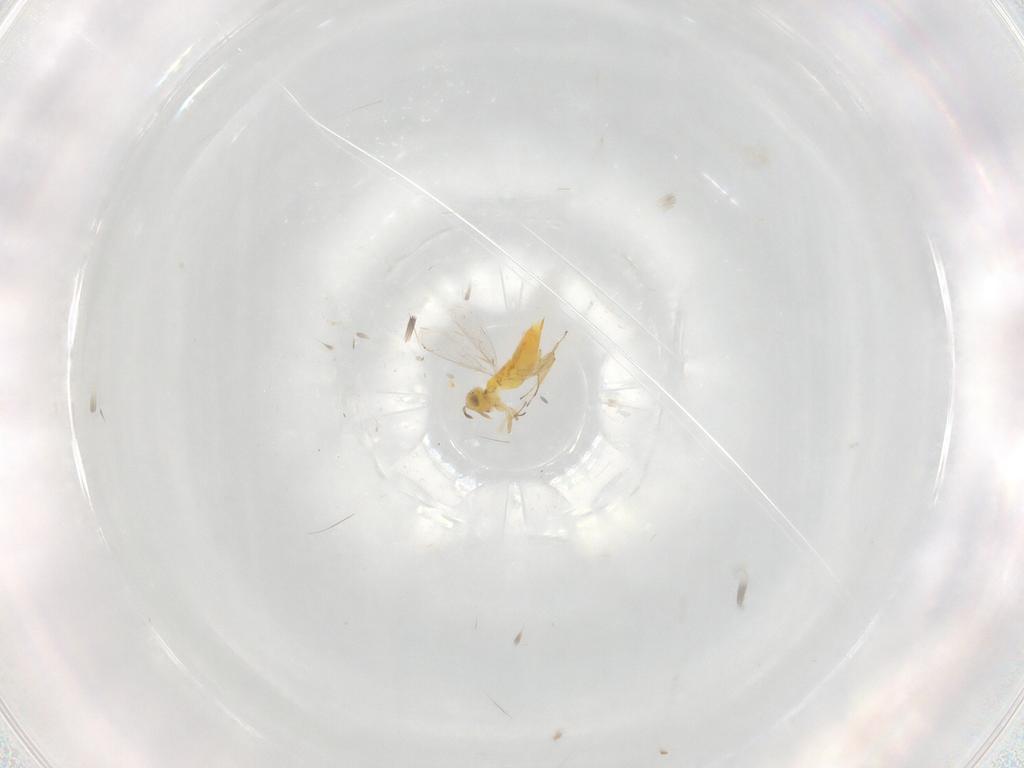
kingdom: Animalia
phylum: Arthropoda
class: Insecta
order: Hymenoptera
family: Aphelinidae
